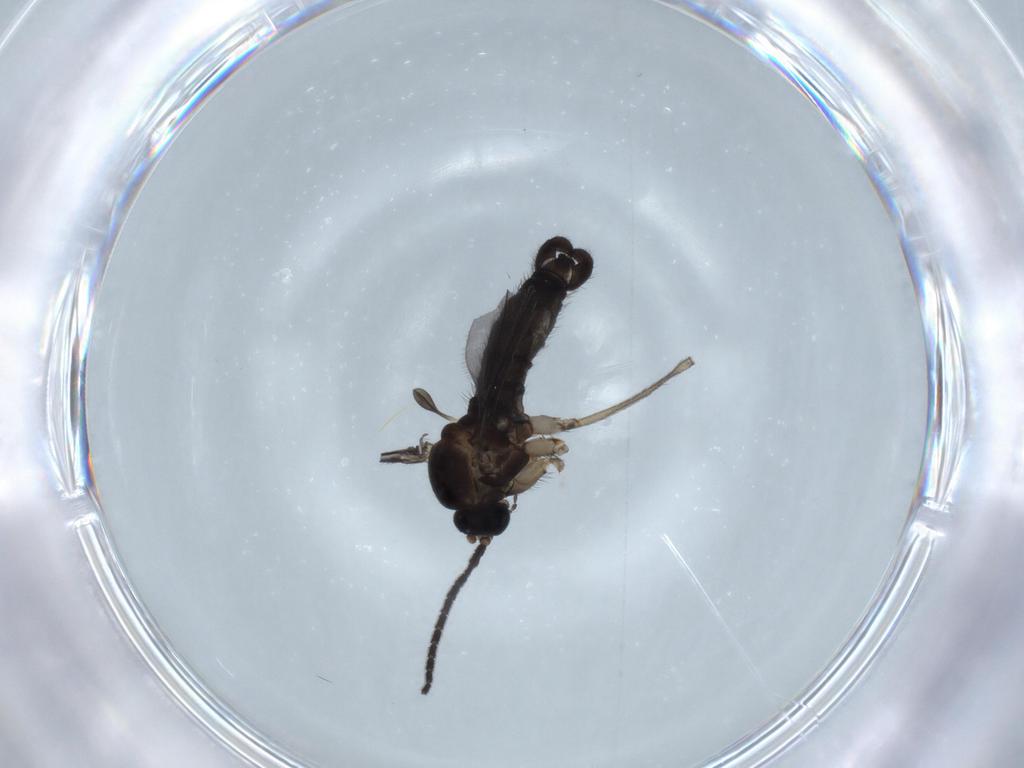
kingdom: Animalia
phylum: Arthropoda
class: Insecta
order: Diptera
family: Sciaridae
